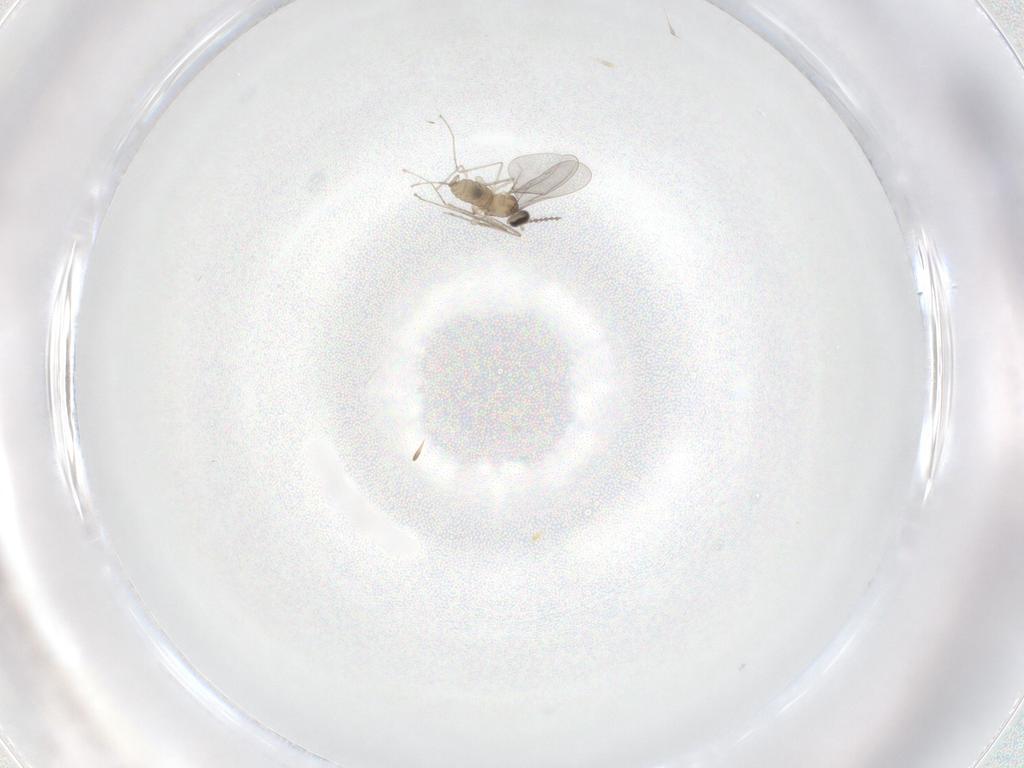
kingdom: Animalia
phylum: Arthropoda
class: Insecta
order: Diptera
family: Cecidomyiidae
